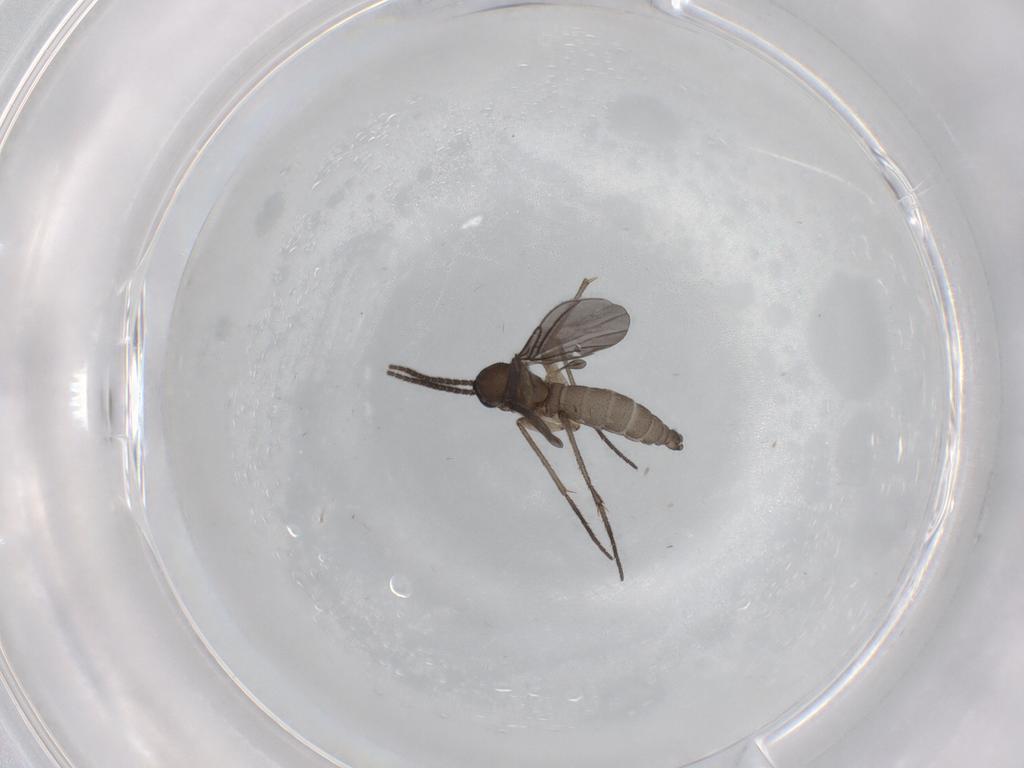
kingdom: Animalia
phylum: Arthropoda
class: Insecta
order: Diptera
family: Sciaridae
